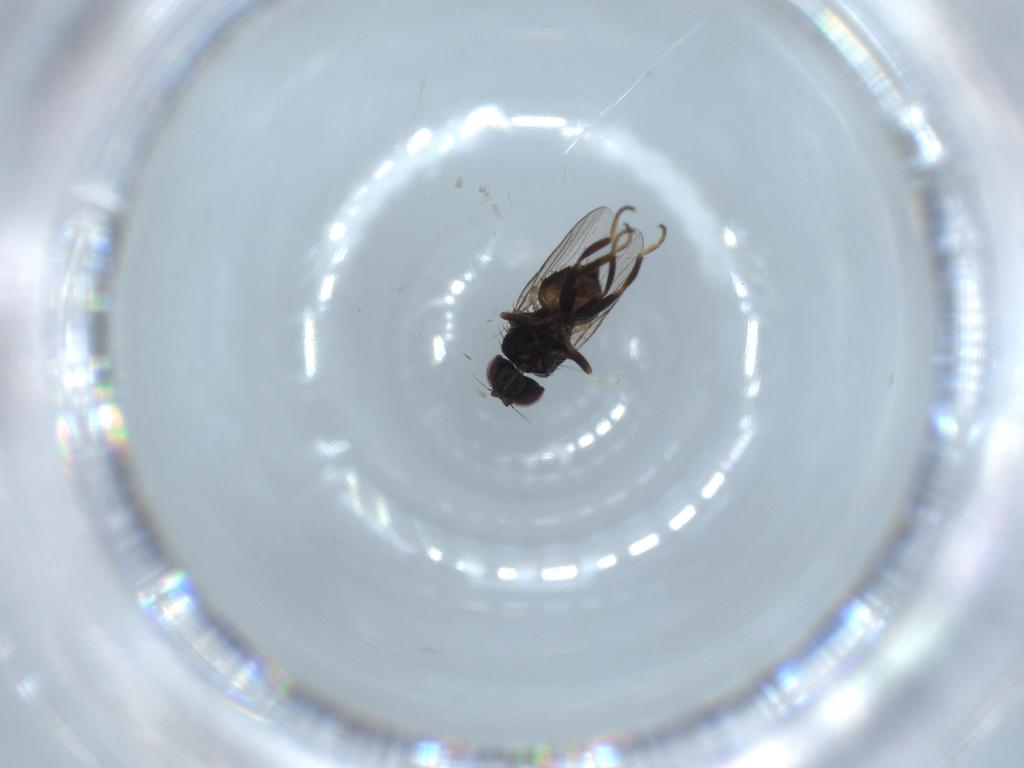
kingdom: Animalia
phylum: Arthropoda
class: Insecta
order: Diptera
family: Chloropidae
